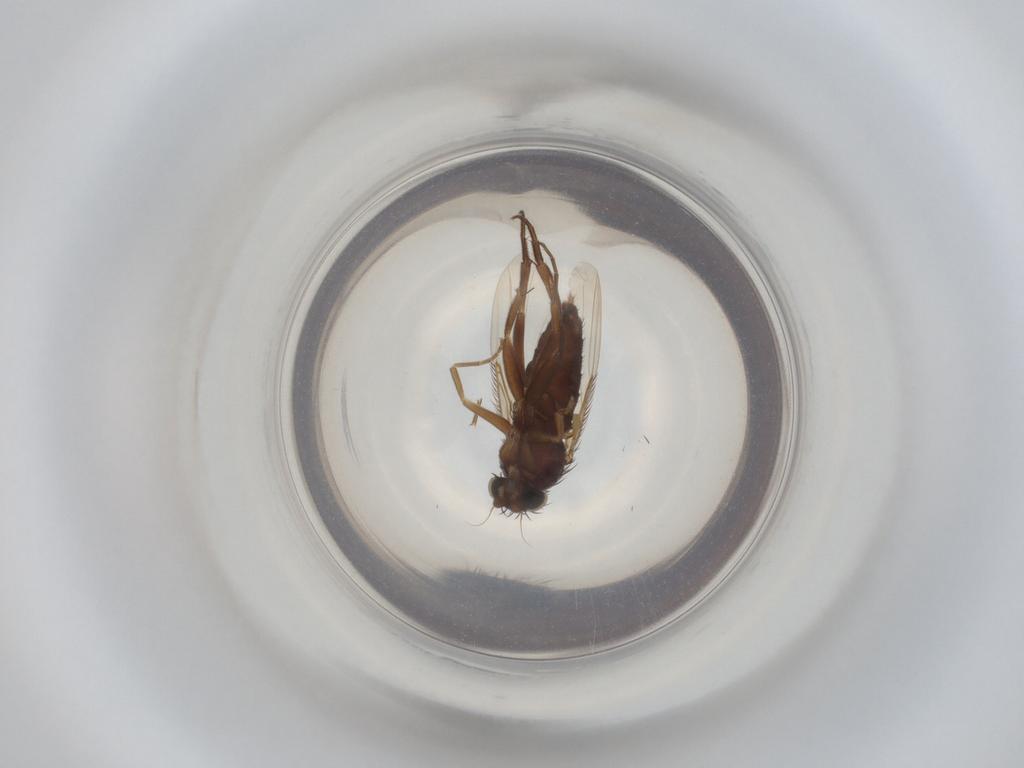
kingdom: Animalia
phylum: Arthropoda
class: Insecta
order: Diptera
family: Phoridae
